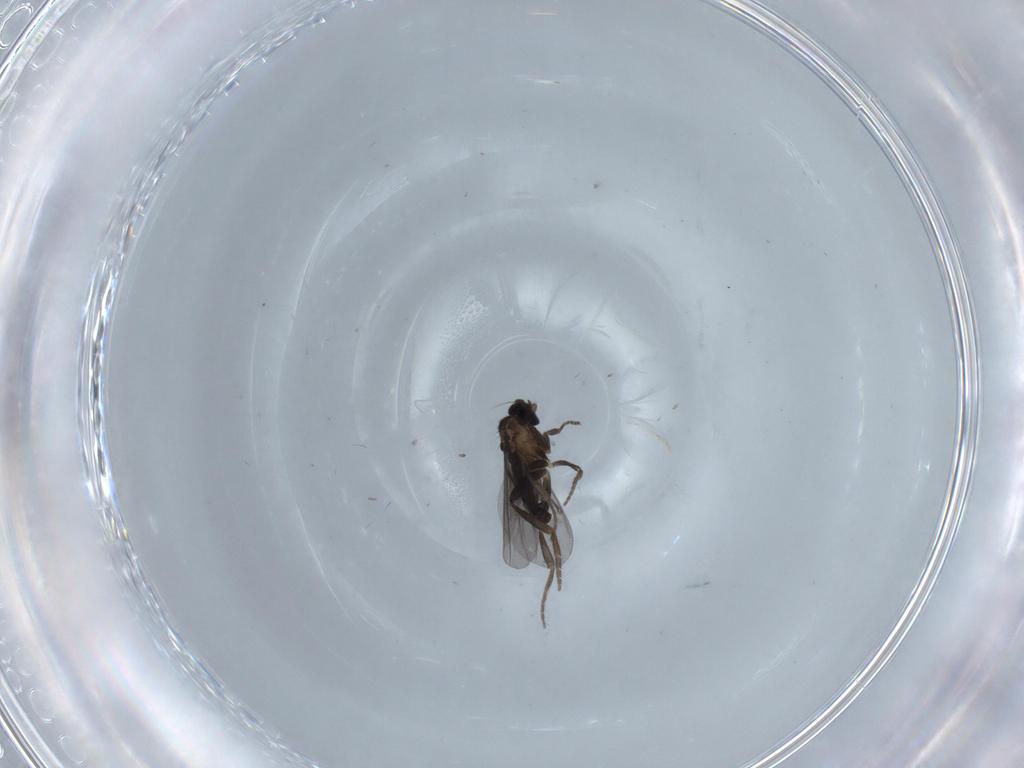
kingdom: Animalia
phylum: Arthropoda
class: Insecta
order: Diptera
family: Phoridae
